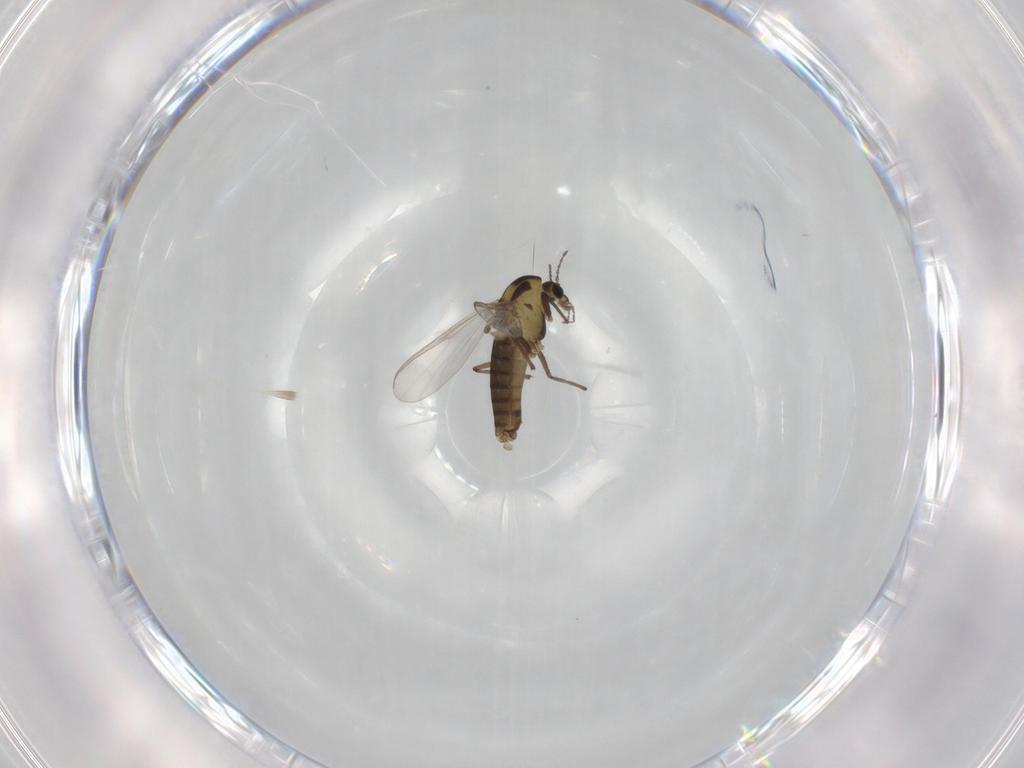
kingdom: Animalia
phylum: Arthropoda
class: Insecta
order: Diptera
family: Chironomidae
